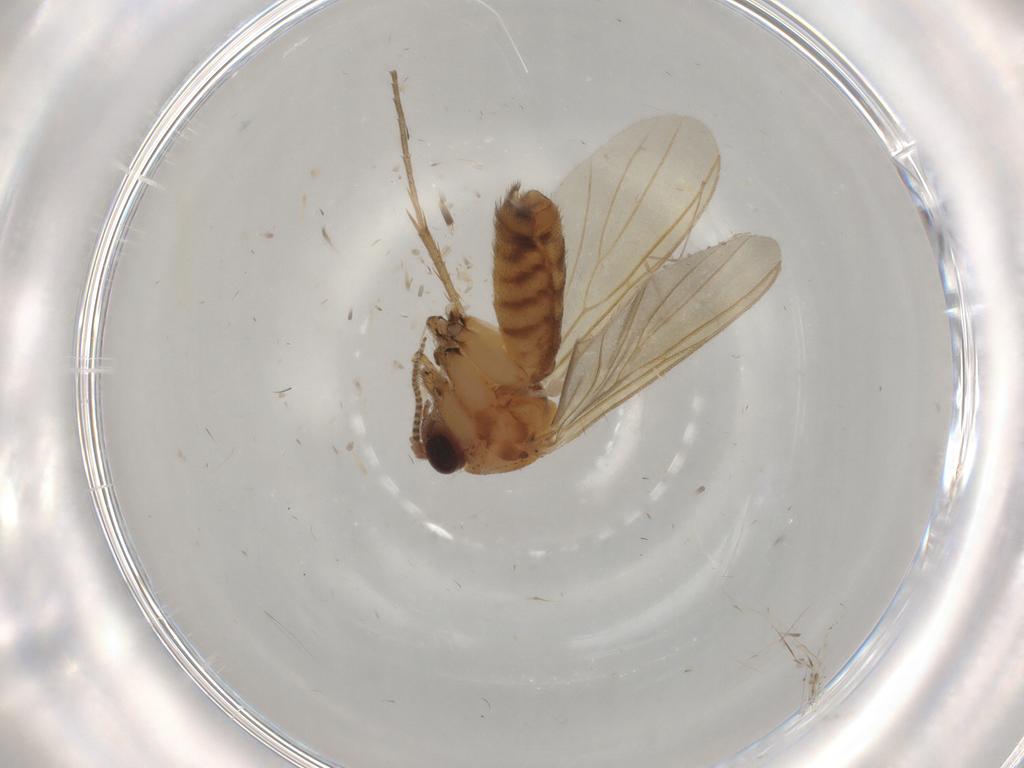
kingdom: Animalia
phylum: Arthropoda
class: Insecta
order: Diptera
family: Mycetophilidae
